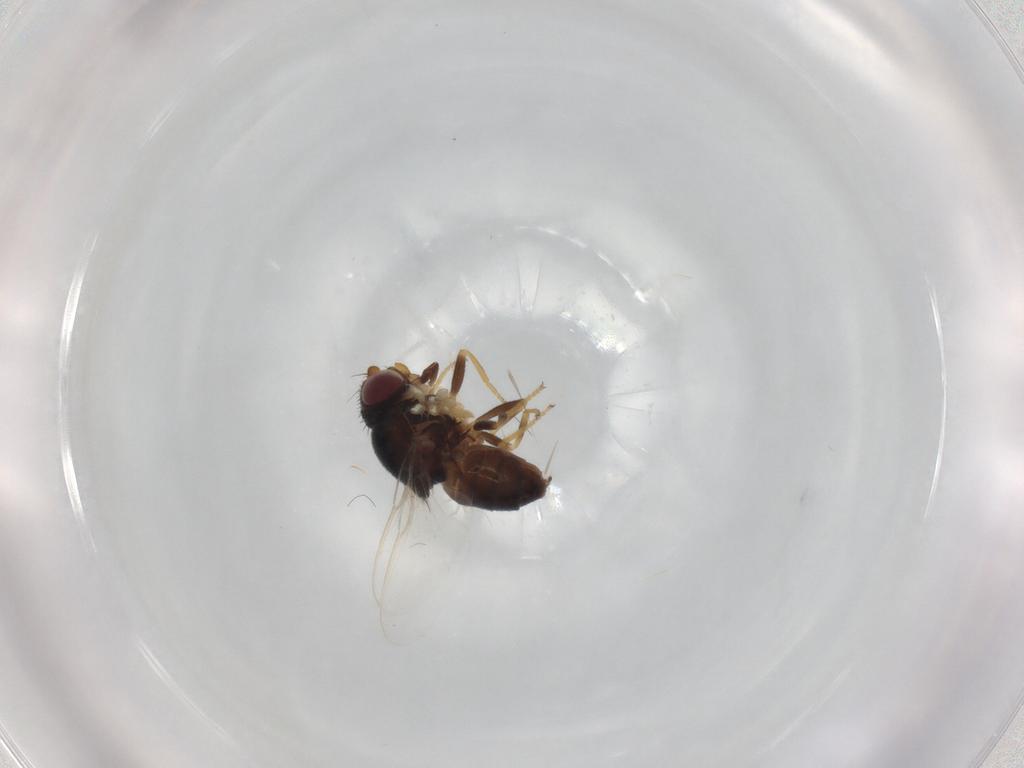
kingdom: Animalia
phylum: Arthropoda
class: Insecta
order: Diptera
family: Chloropidae
